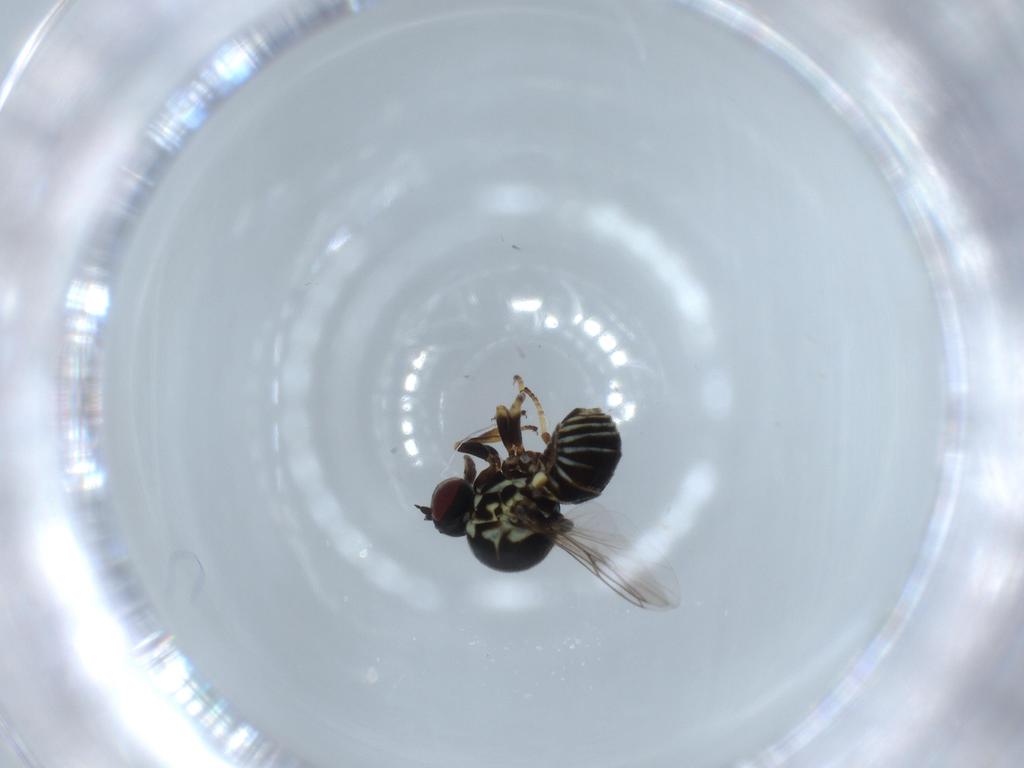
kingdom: Animalia
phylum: Arthropoda
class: Insecta
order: Diptera
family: Bombyliidae
